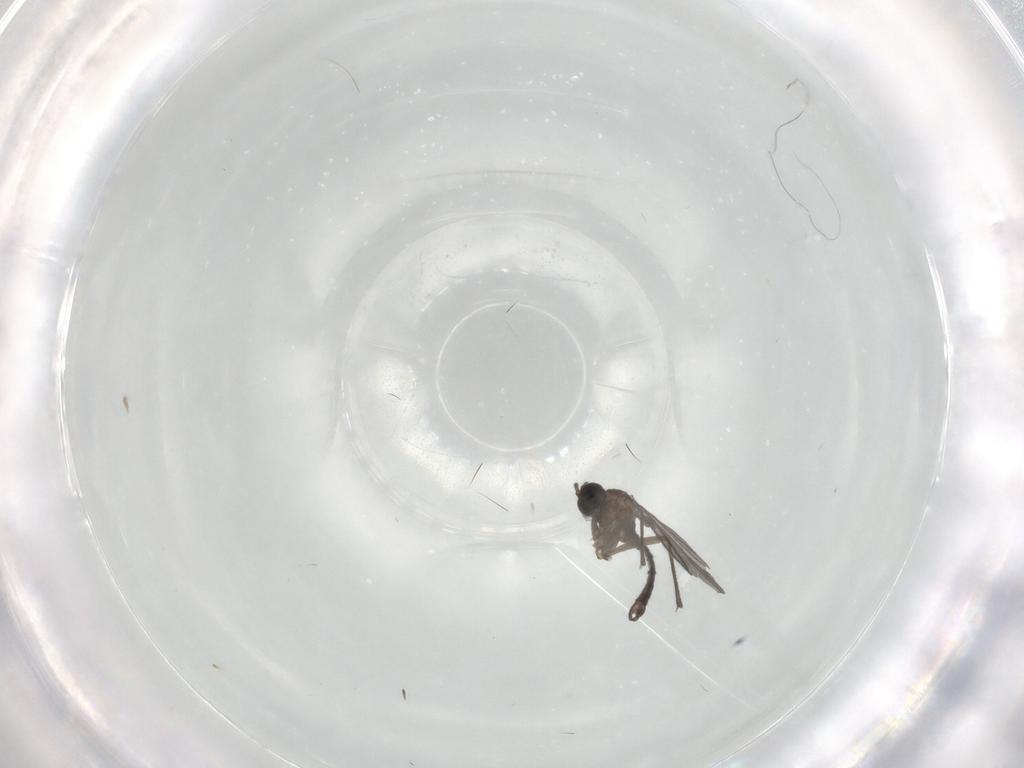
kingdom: Animalia
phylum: Arthropoda
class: Insecta
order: Diptera
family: Sciaridae
